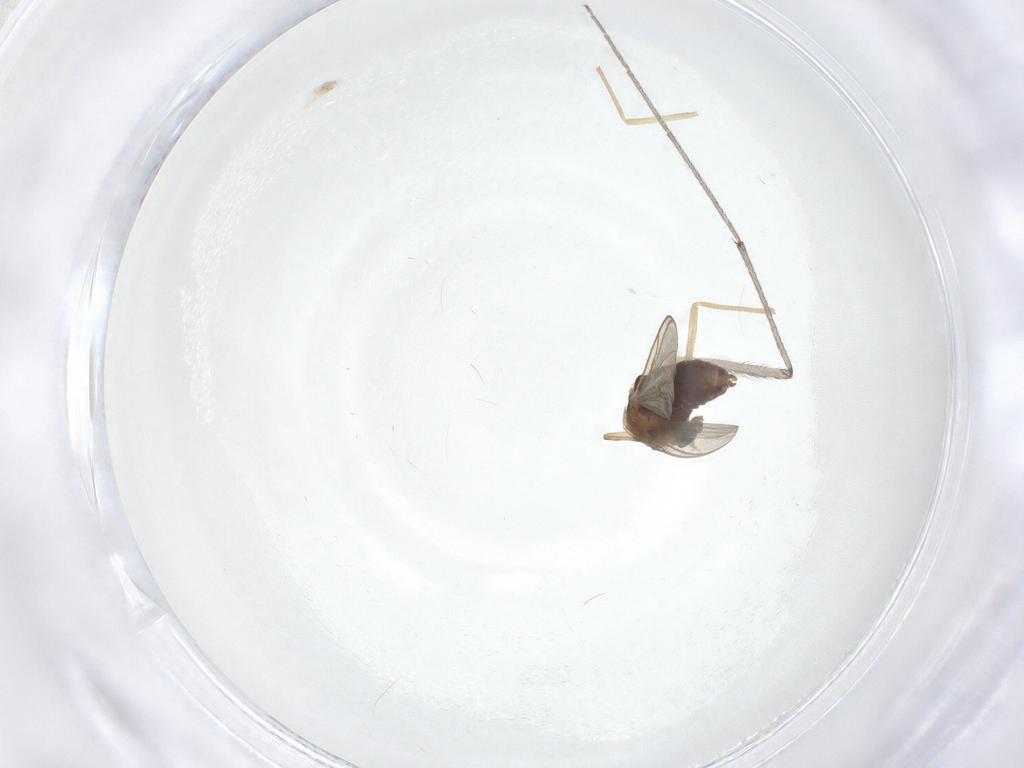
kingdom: Animalia
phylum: Arthropoda
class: Insecta
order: Diptera
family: Chironomidae
